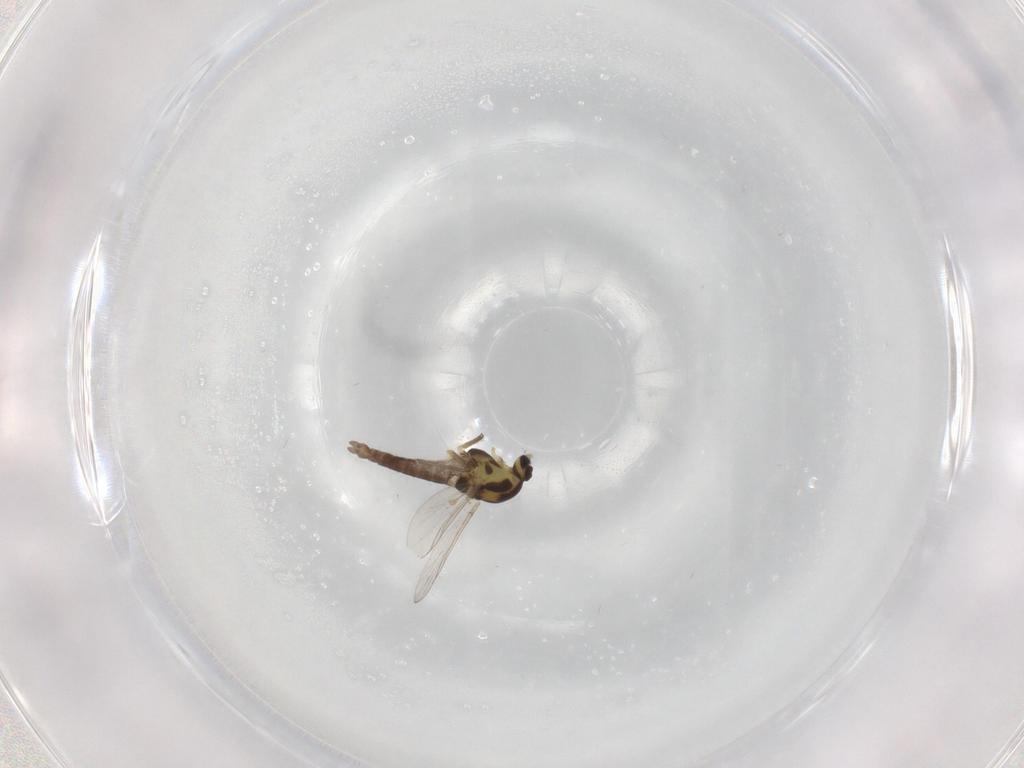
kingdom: Animalia
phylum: Arthropoda
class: Insecta
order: Diptera
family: Chironomidae
